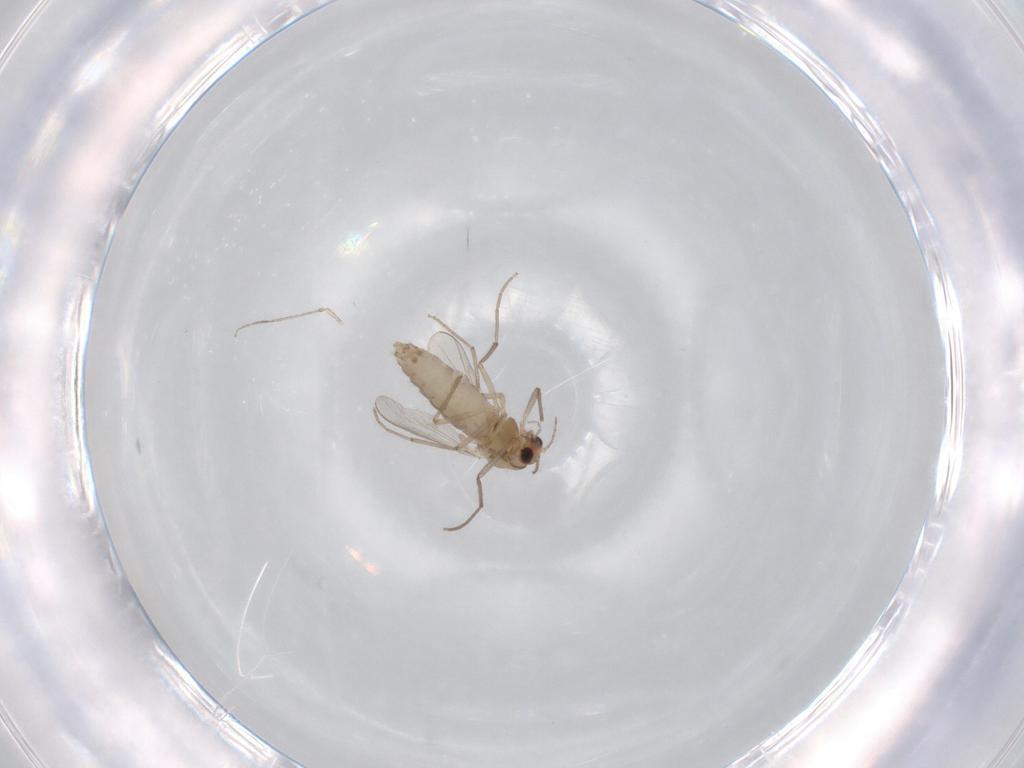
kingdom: Animalia
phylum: Arthropoda
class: Insecta
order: Diptera
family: Chironomidae
